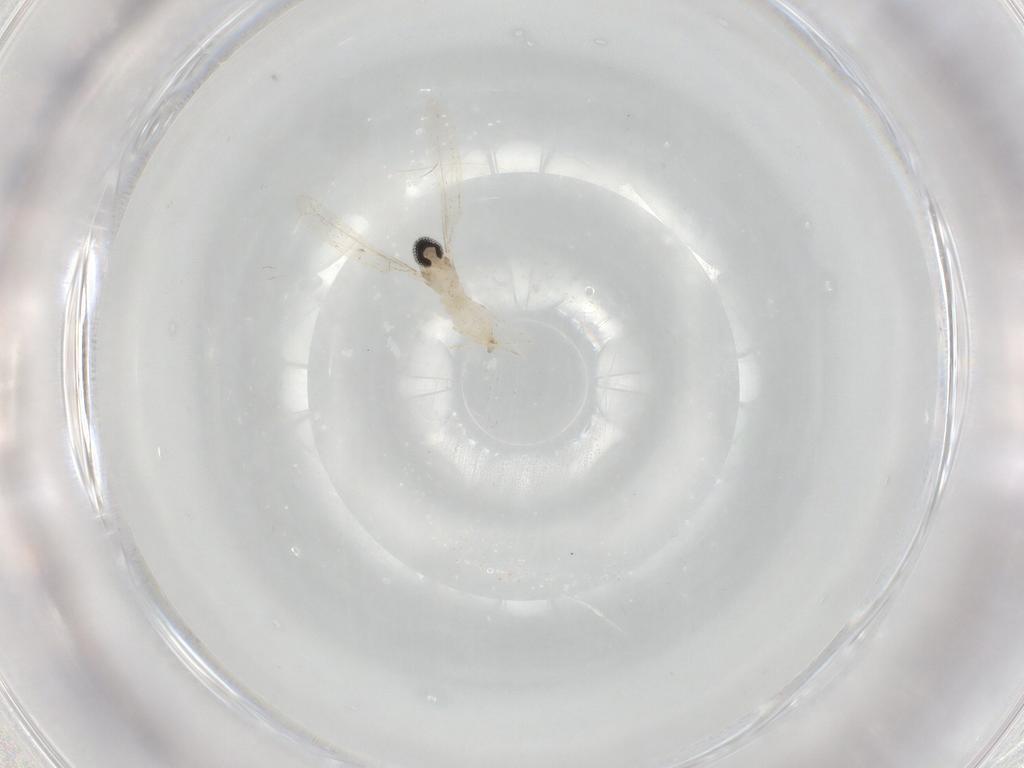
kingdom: Animalia
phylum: Arthropoda
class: Insecta
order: Diptera
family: Cecidomyiidae
